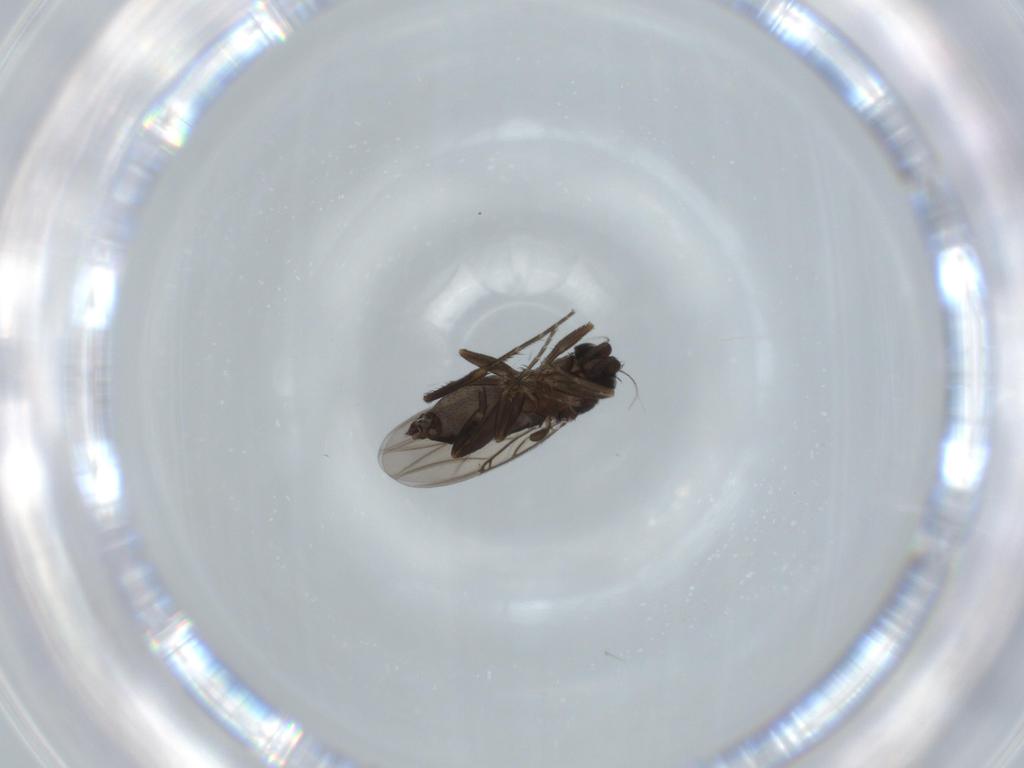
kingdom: Animalia
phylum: Arthropoda
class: Insecta
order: Diptera
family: Phoridae
